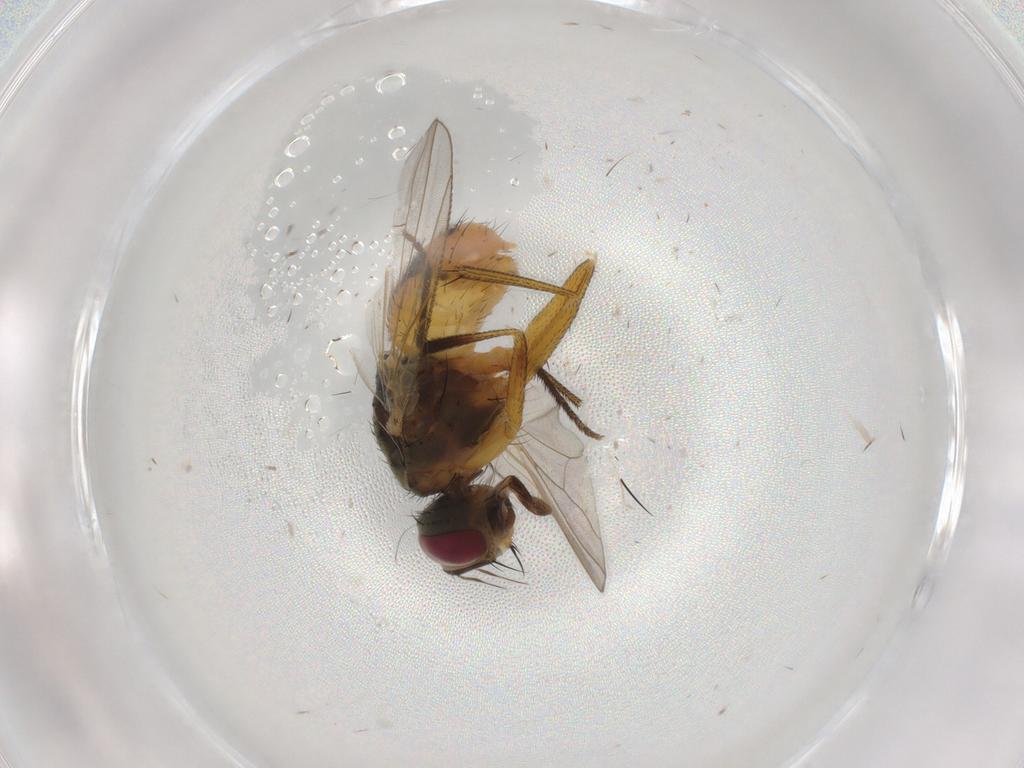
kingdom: Animalia
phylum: Arthropoda
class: Insecta
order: Diptera
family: Muscidae
